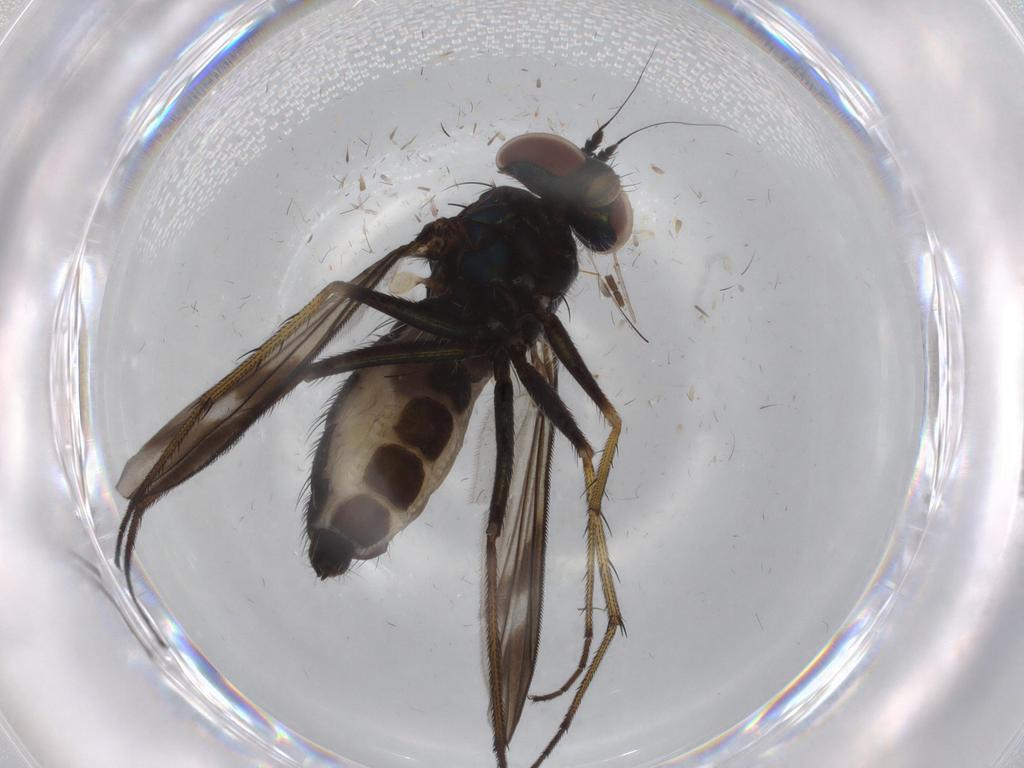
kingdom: Animalia
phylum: Arthropoda
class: Insecta
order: Diptera
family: Dolichopodidae
